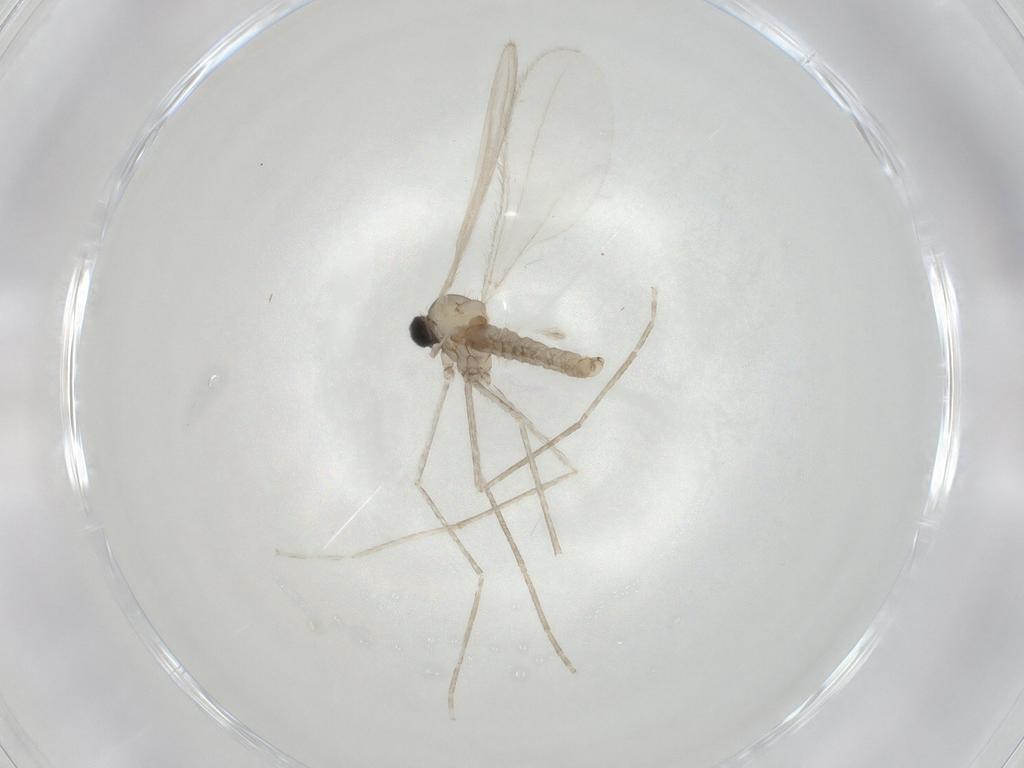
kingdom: Animalia
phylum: Arthropoda
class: Insecta
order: Diptera
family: Cecidomyiidae
